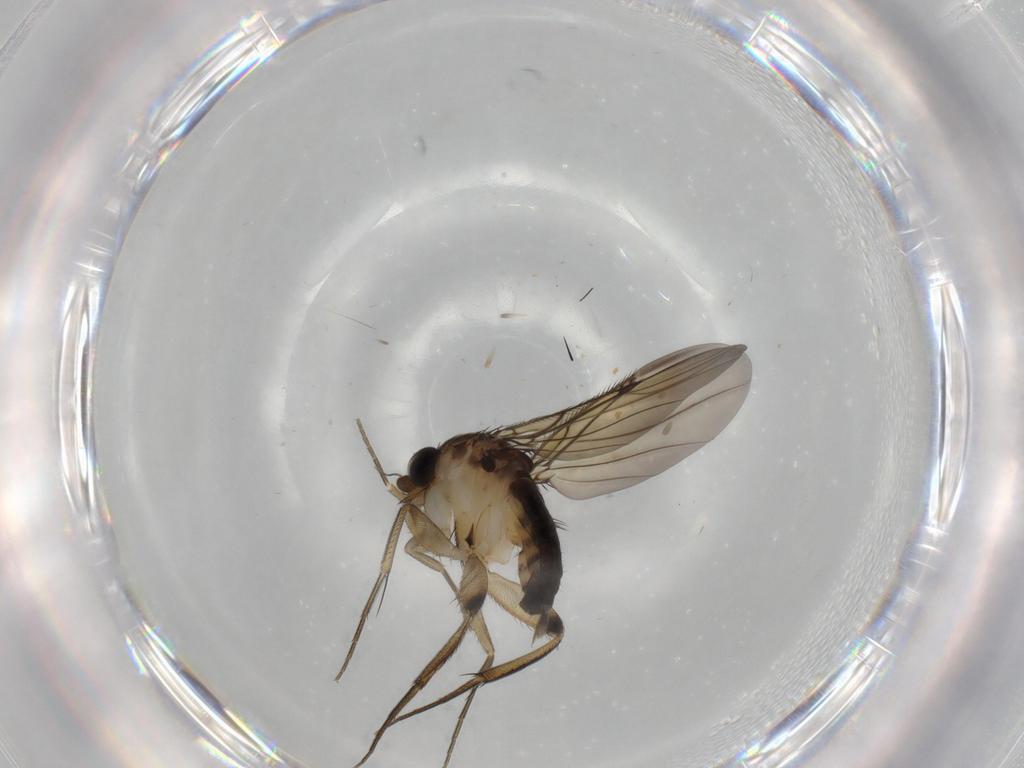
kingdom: Animalia
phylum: Arthropoda
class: Insecta
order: Diptera
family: Phoridae
